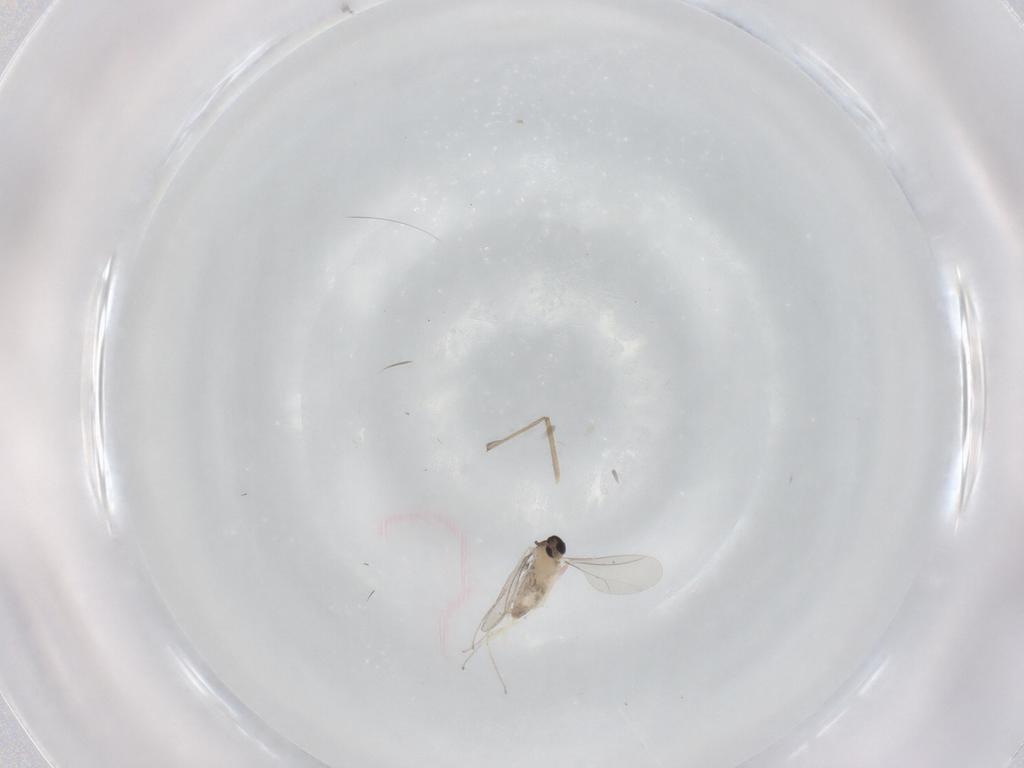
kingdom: Animalia
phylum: Arthropoda
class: Insecta
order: Diptera
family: Cecidomyiidae
